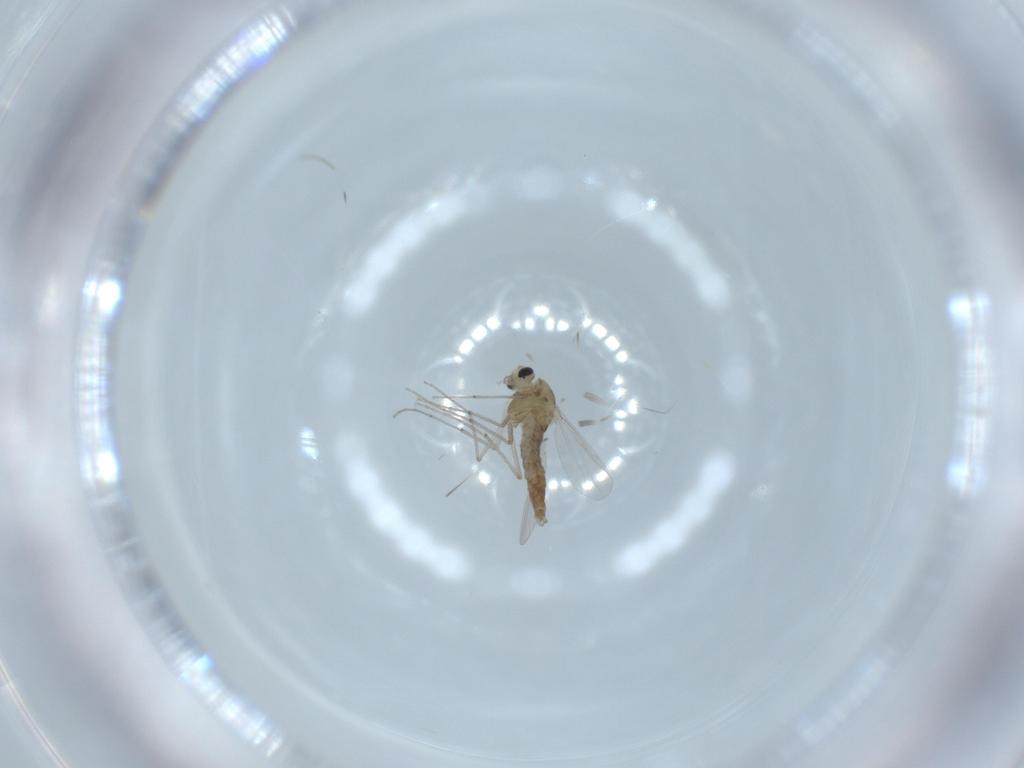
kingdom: Animalia
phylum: Arthropoda
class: Insecta
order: Diptera
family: Chironomidae
